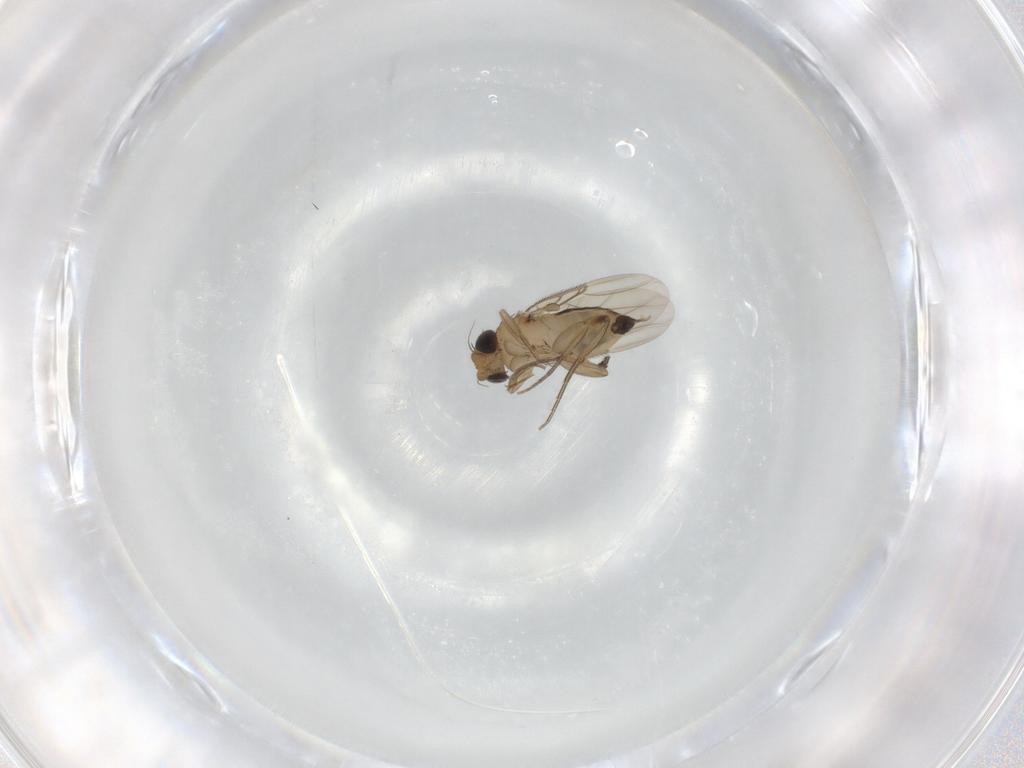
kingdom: Animalia
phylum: Arthropoda
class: Insecta
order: Diptera
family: Phoridae
